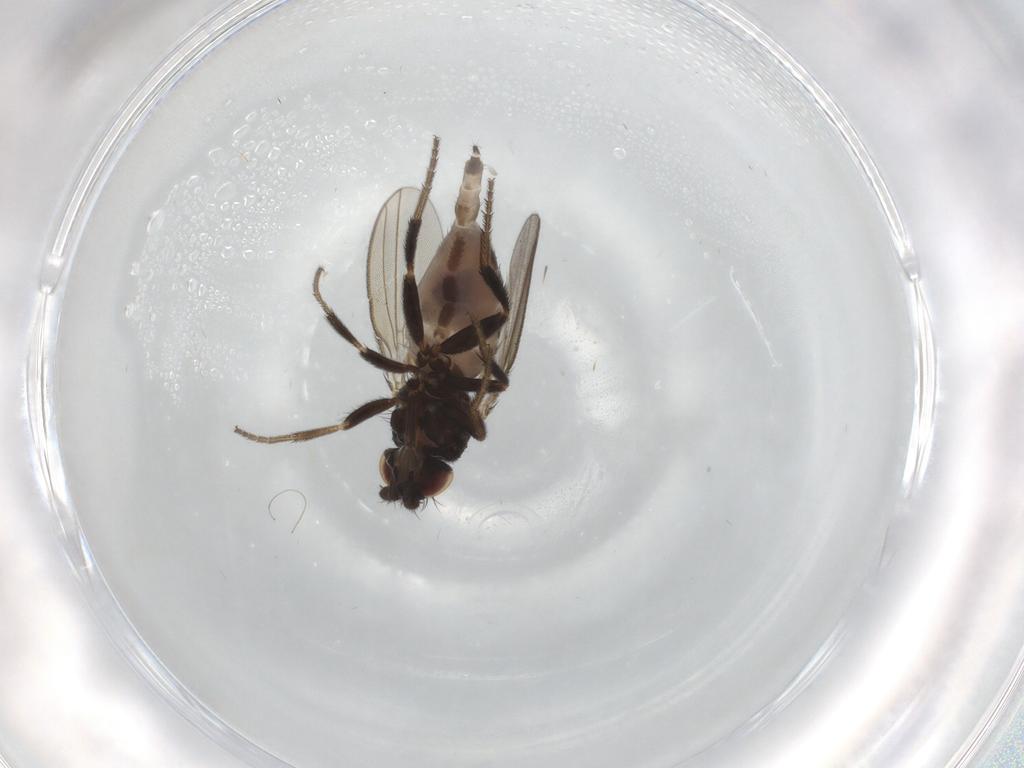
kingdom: Animalia
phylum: Arthropoda
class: Insecta
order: Diptera
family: Milichiidae
